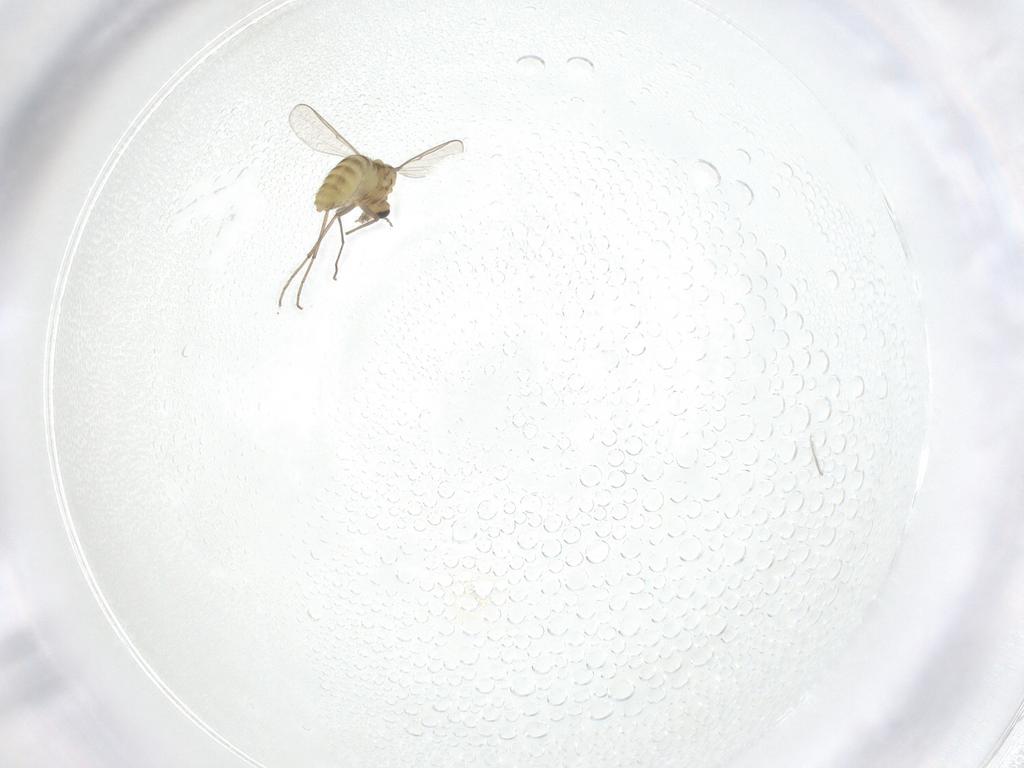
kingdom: Animalia
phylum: Arthropoda
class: Insecta
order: Diptera
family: Chironomidae
